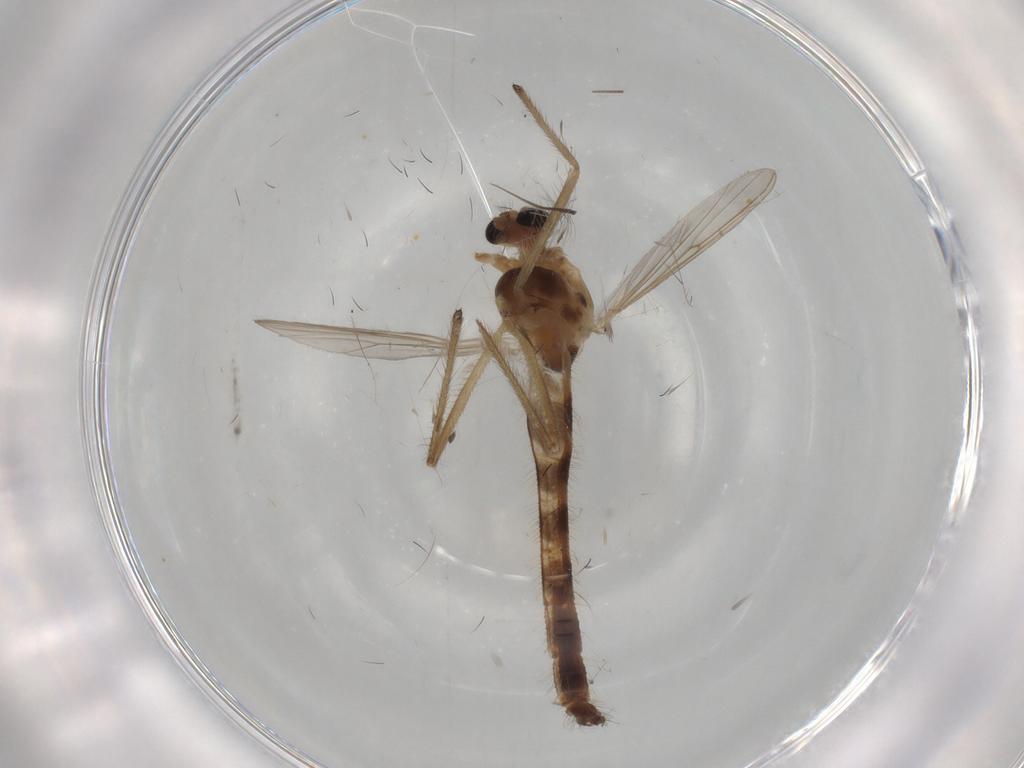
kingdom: Animalia
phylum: Arthropoda
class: Insecta
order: Diptera
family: Chironomidae
